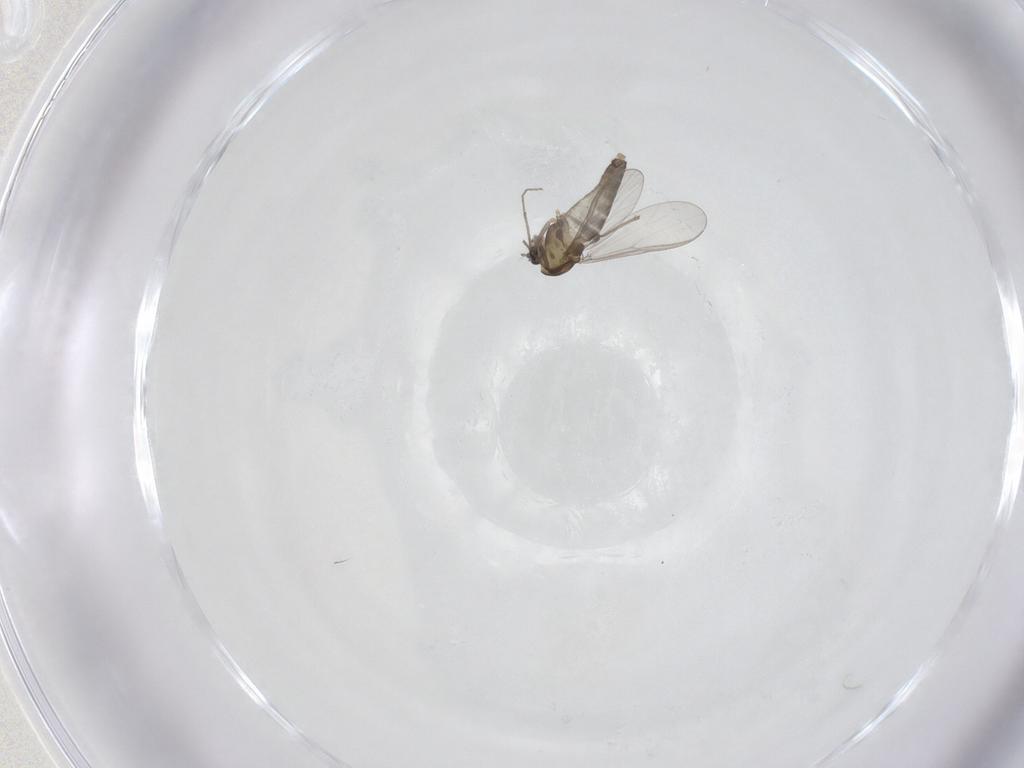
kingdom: Animalia
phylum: Arthropoda
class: Insecta
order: Diptera
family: Chironomidae
